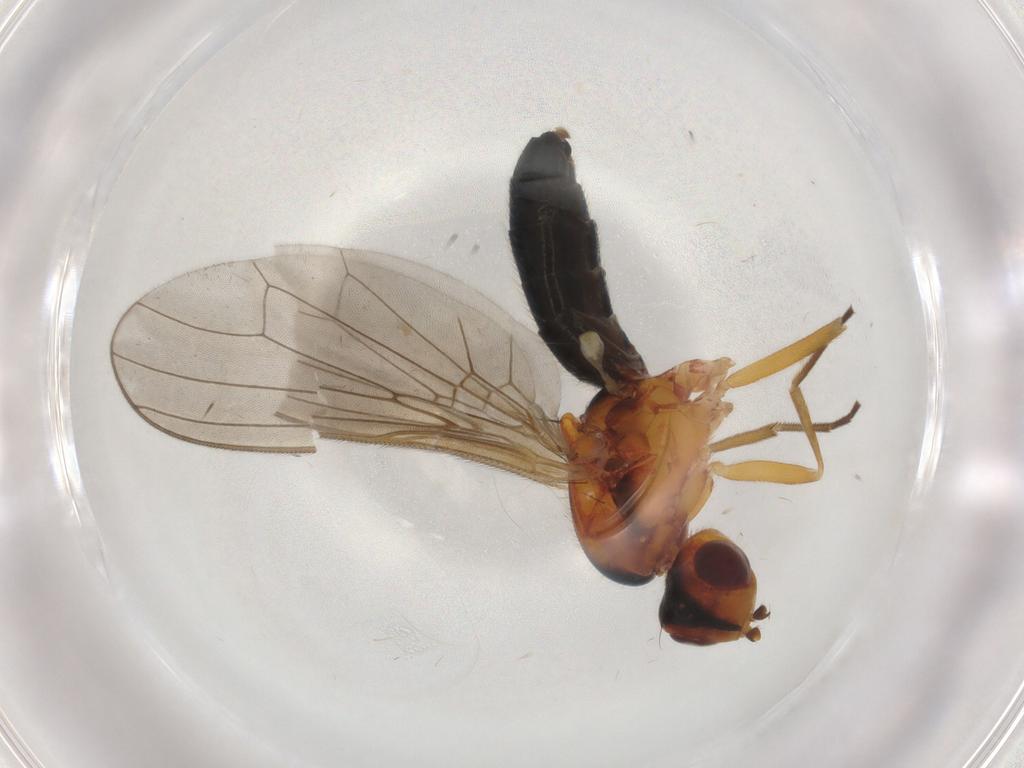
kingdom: Animalia
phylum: Arthropoda
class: Insecta
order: Diptera
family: Psilidae
